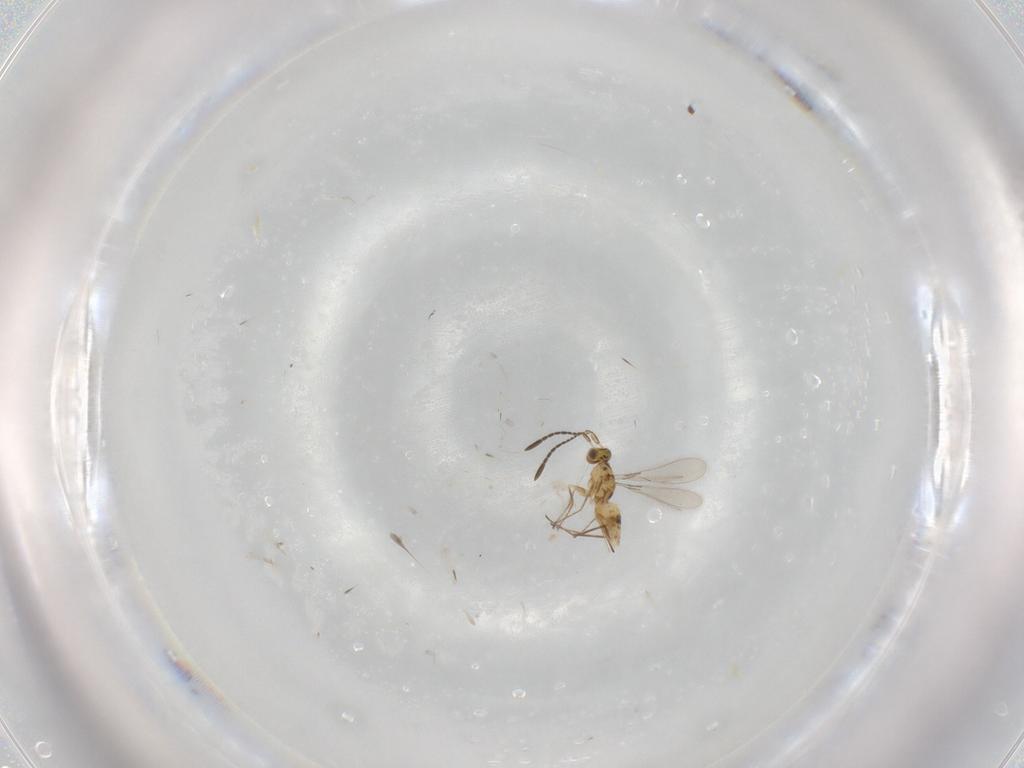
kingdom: Animalia
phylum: Arthropoda
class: Insecta
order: Hymenoptera
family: Mymaridae
